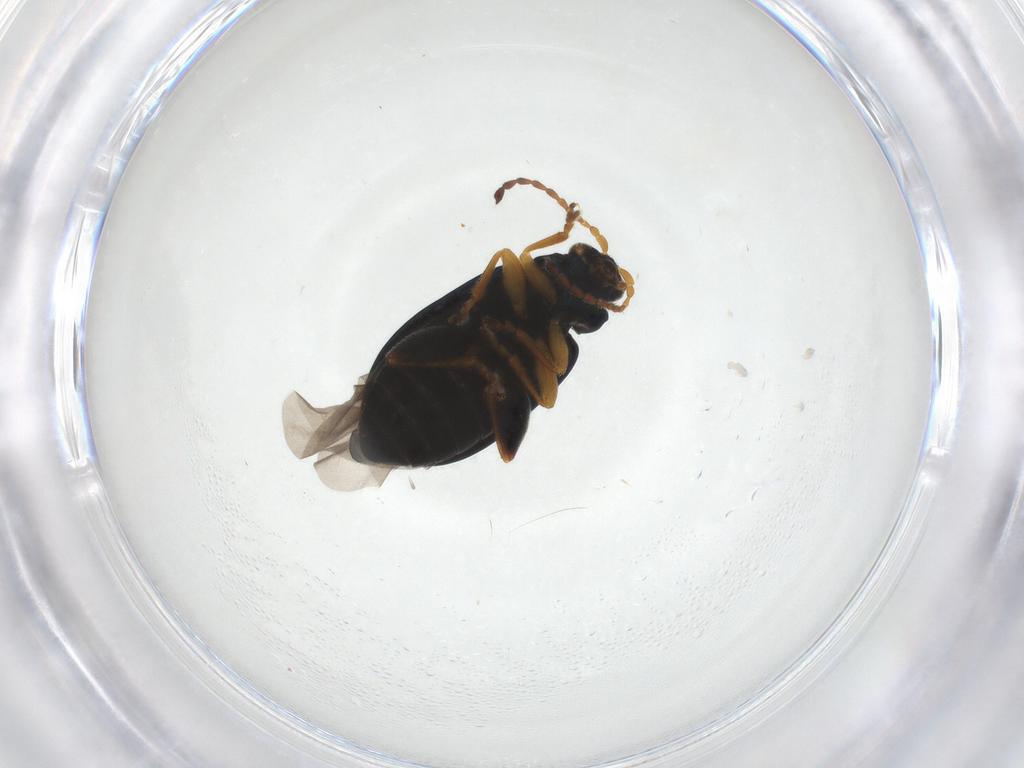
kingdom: Animalia
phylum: Arthropoda
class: Insecta
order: Coleoptera
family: Chrysomelidae
